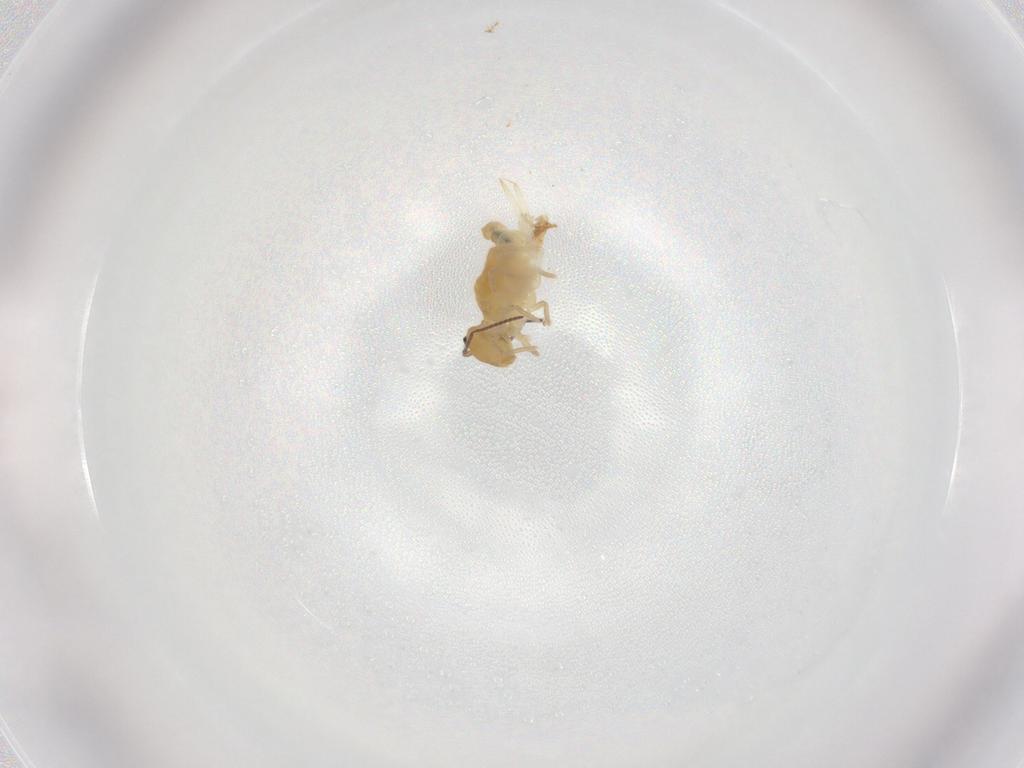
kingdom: Animalia
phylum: Arthropoda
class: Collembola
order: Symphypleona
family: Bourletiellidae
